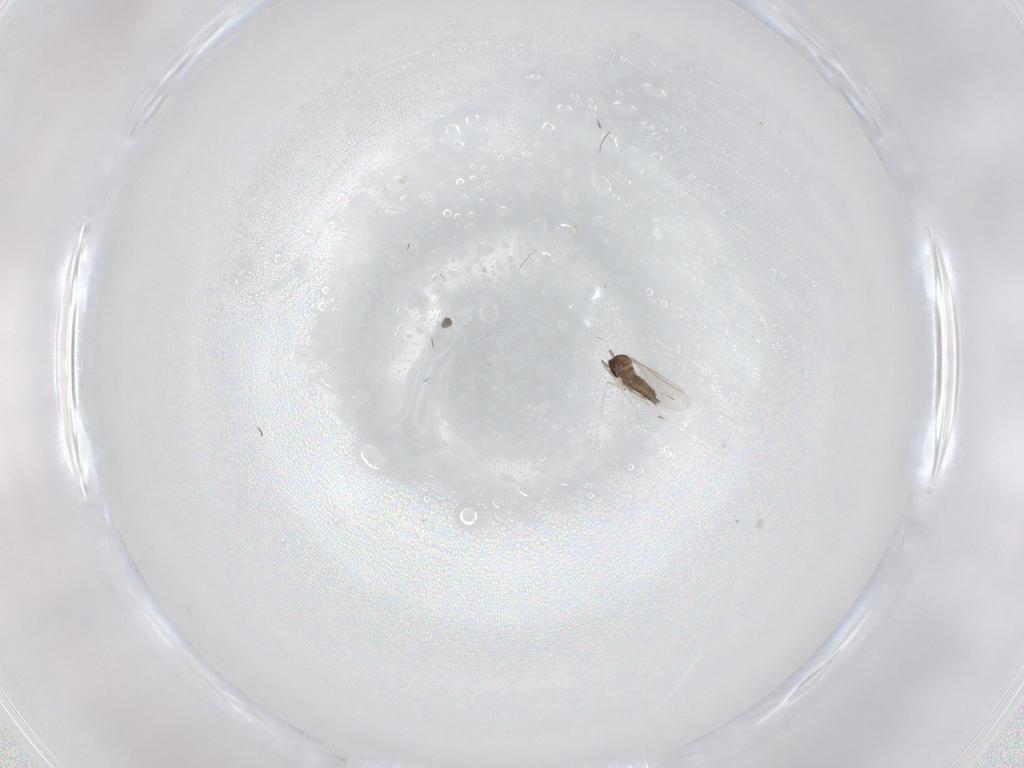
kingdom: Animalia
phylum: Arthropoda
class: Insecta
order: Diptera
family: Cecidomyiidae
